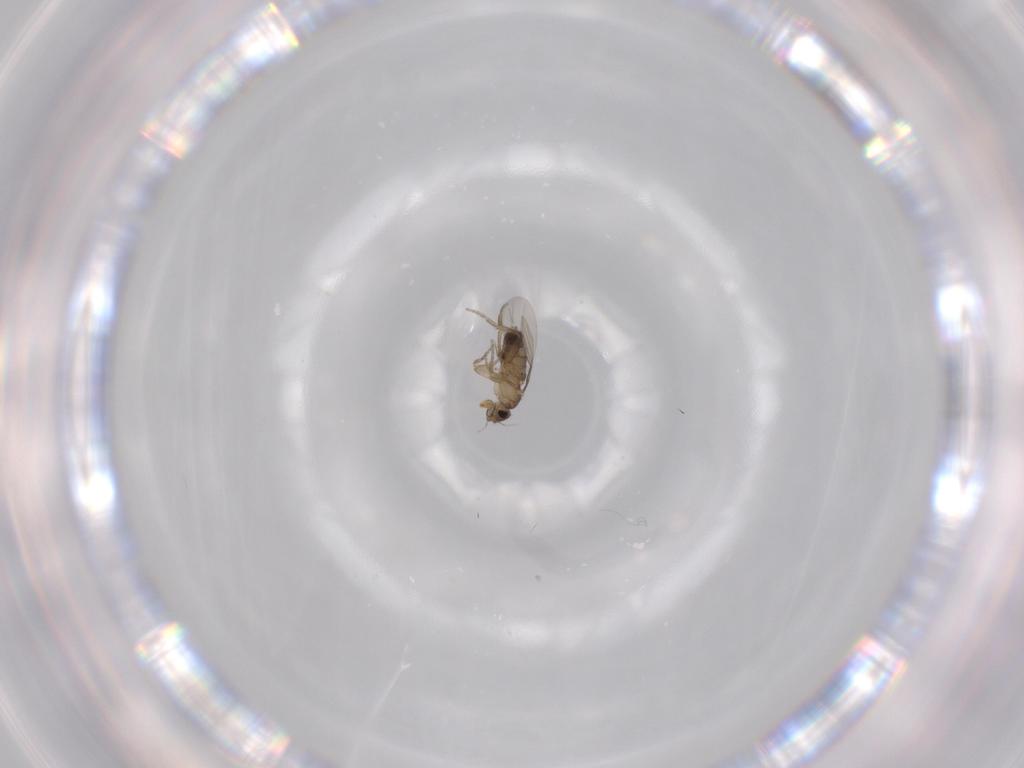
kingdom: Animalia
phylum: Arthropoda
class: Insecta
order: Diptera
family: Phoridae
